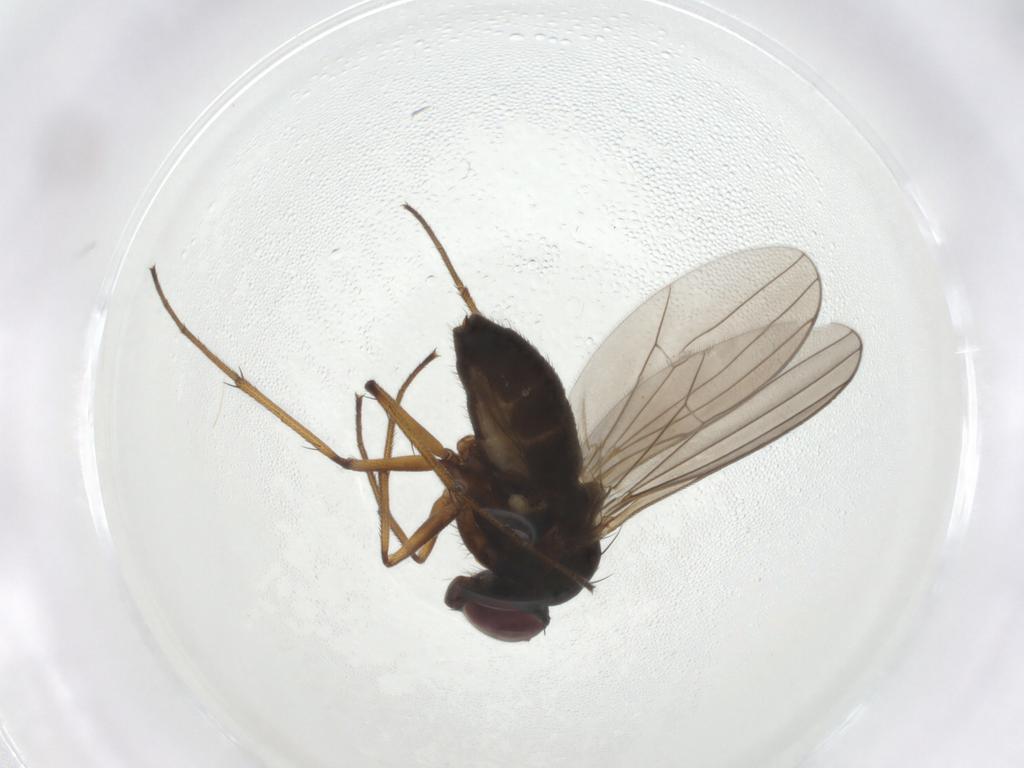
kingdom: Animalia
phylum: Arthropoda
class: Insecta
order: Diptera
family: Dolichopodidae
